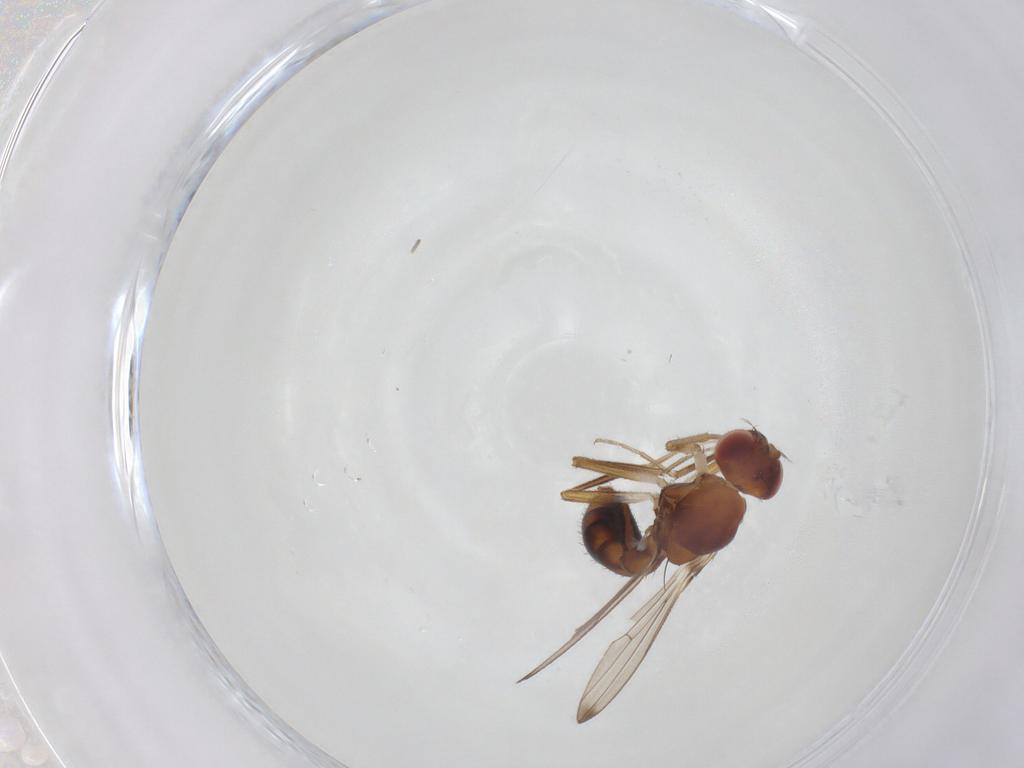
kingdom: Animalia
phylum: Arthropoda
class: Insecta
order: Diptera
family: Drosophilidae
